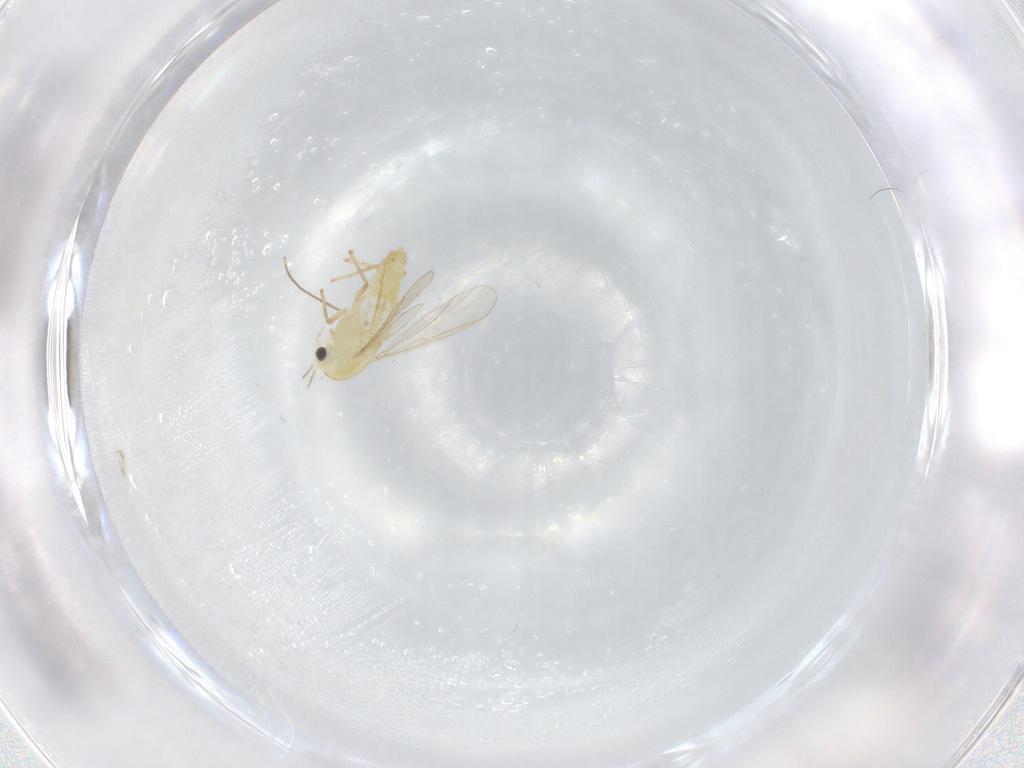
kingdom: Animalia
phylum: Arthropoda
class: Insecta
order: Diptera
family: Chironomidae
